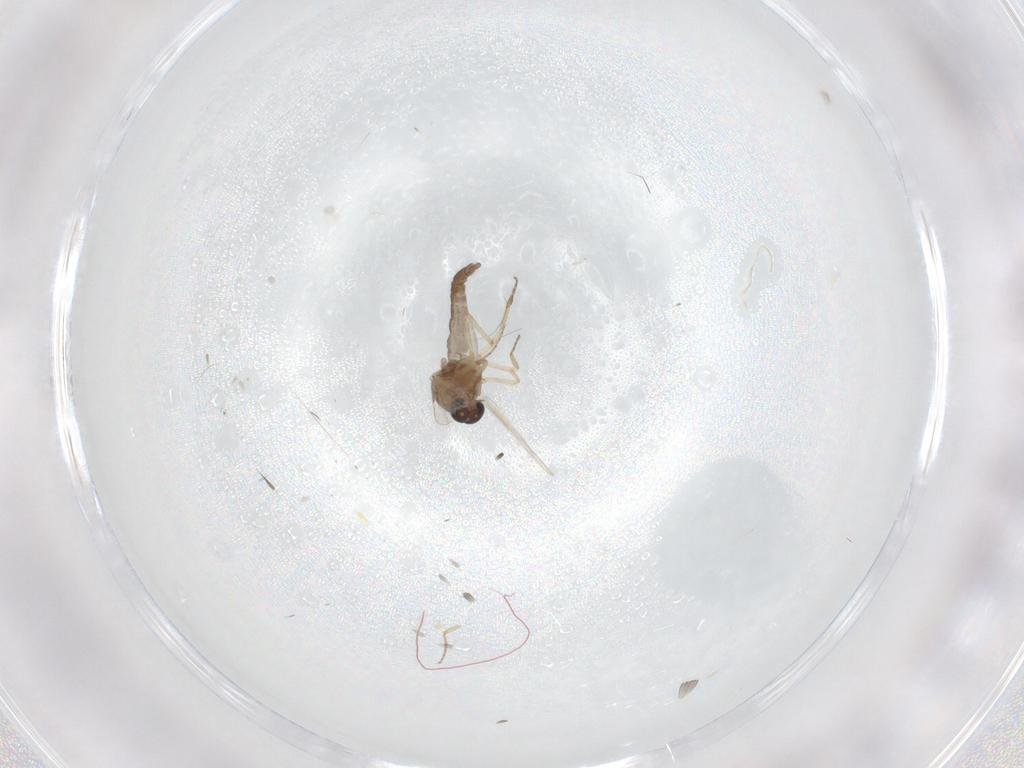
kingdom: Animalia
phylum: Arthropoda
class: Insecta
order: Diptera
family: Ceratopogonidae
